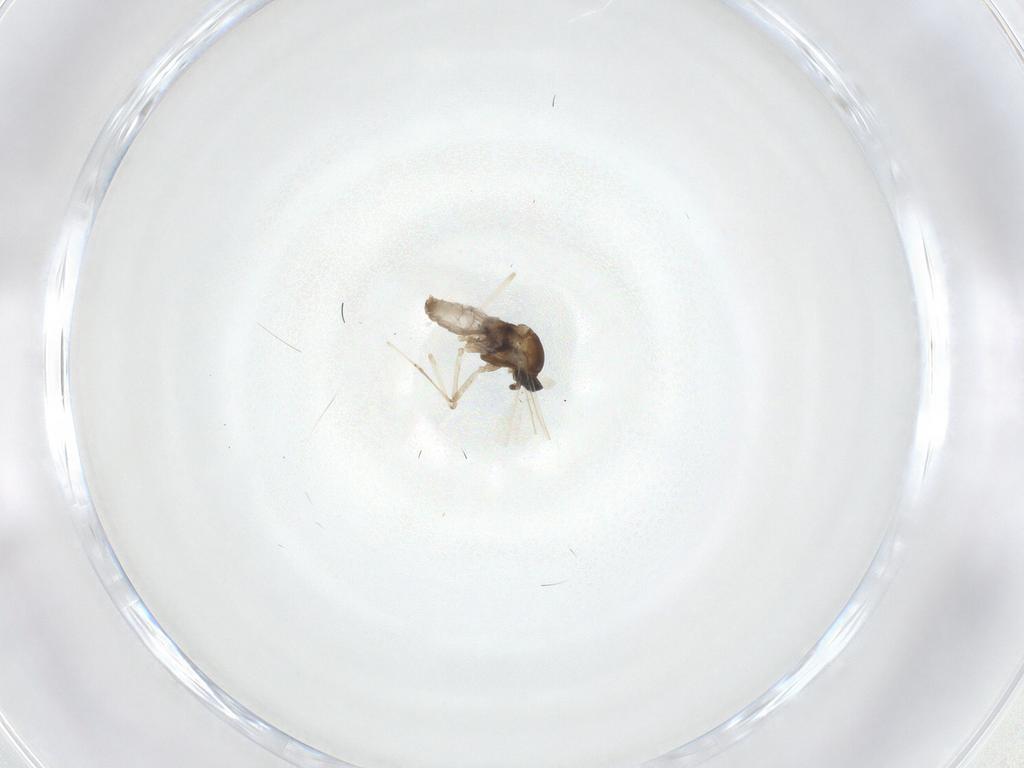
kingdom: Animalia
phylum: Arthropoda
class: Insecta
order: Diptera
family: Cecidomyiidae
